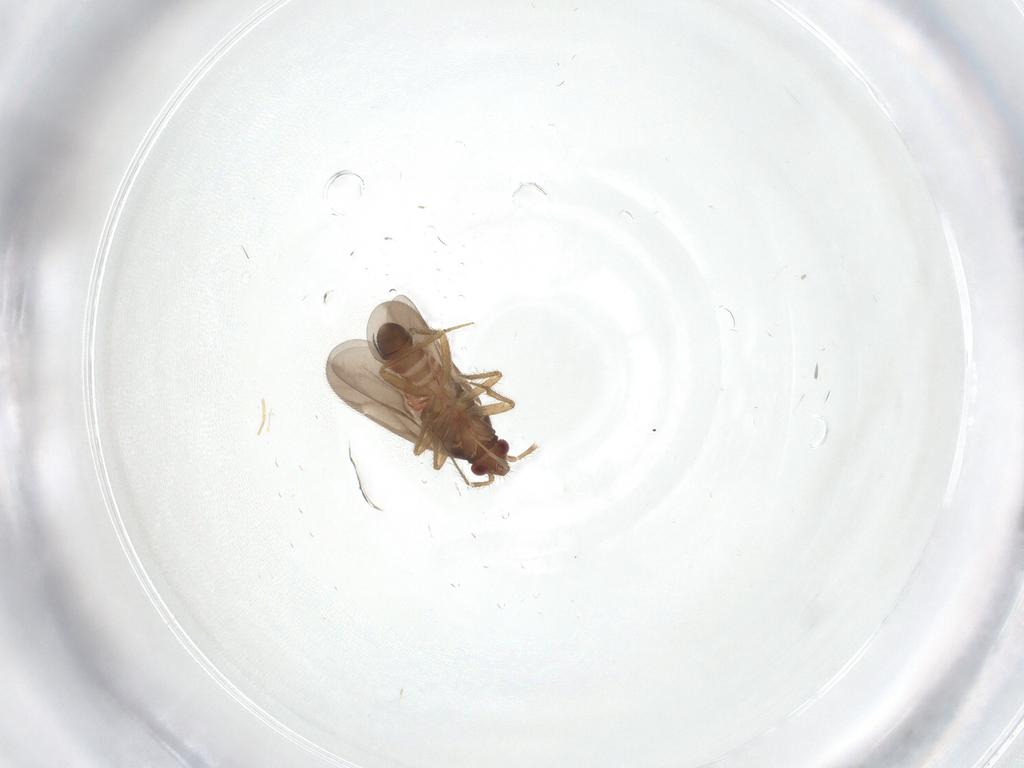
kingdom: Animalia
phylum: Arthropoda
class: Insecta
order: Hemiptera
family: Ceratocombidae
